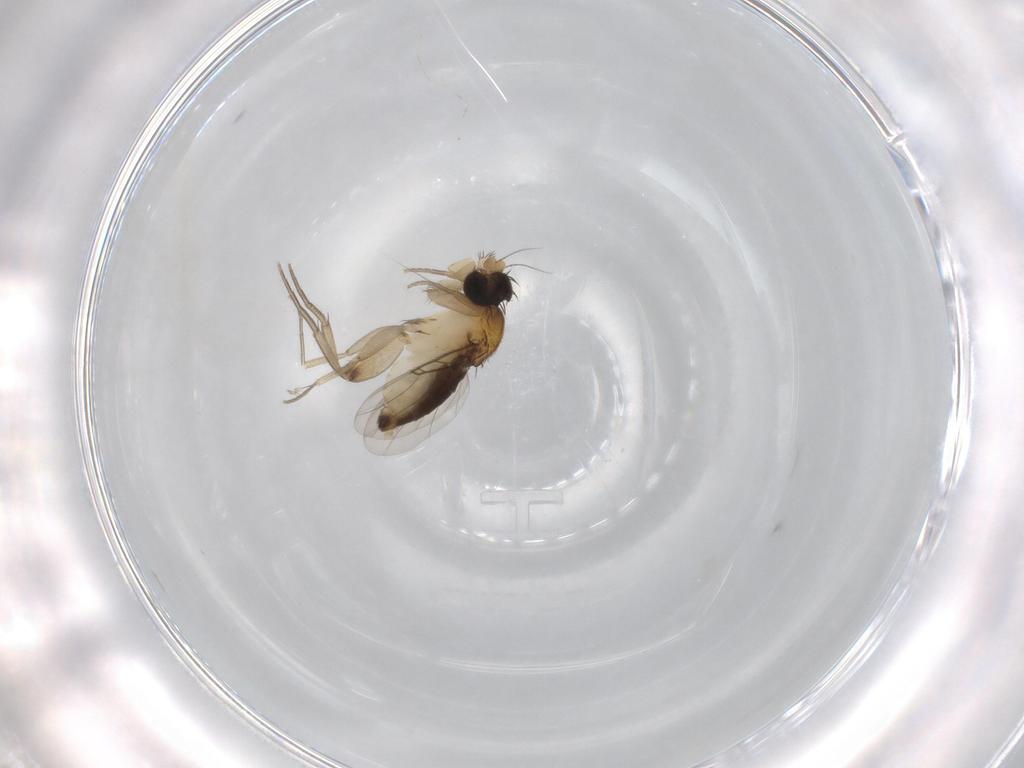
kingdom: Animalia
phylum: Arthropoda
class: Insecta
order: Diptera
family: Phoridae
